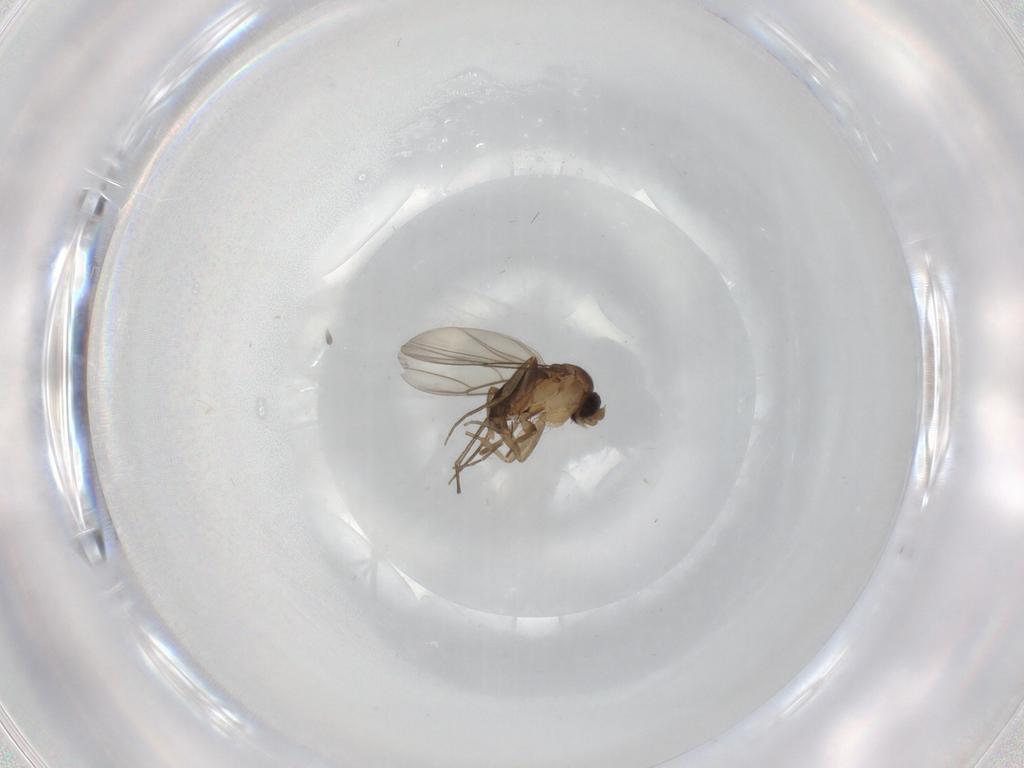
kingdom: Animalia
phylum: Arthropoda
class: Insecta
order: Diptera
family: Sciaridae
